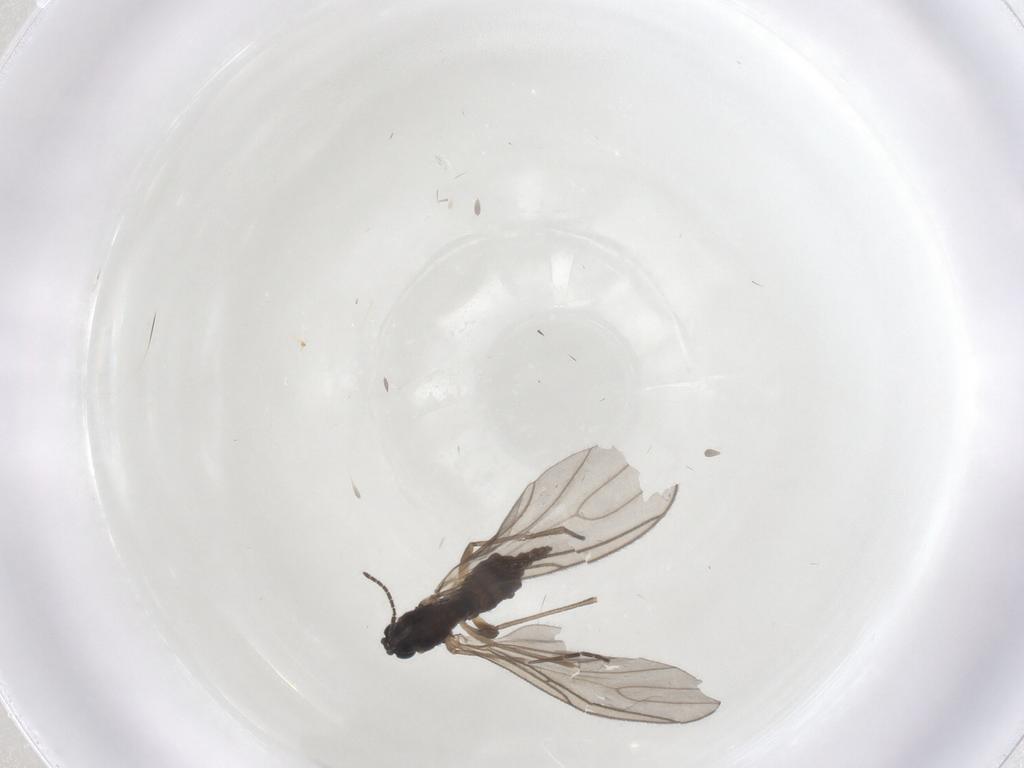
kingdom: Animalia
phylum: Arthropoda
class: Insecta
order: Diptera
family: Sciaridae
